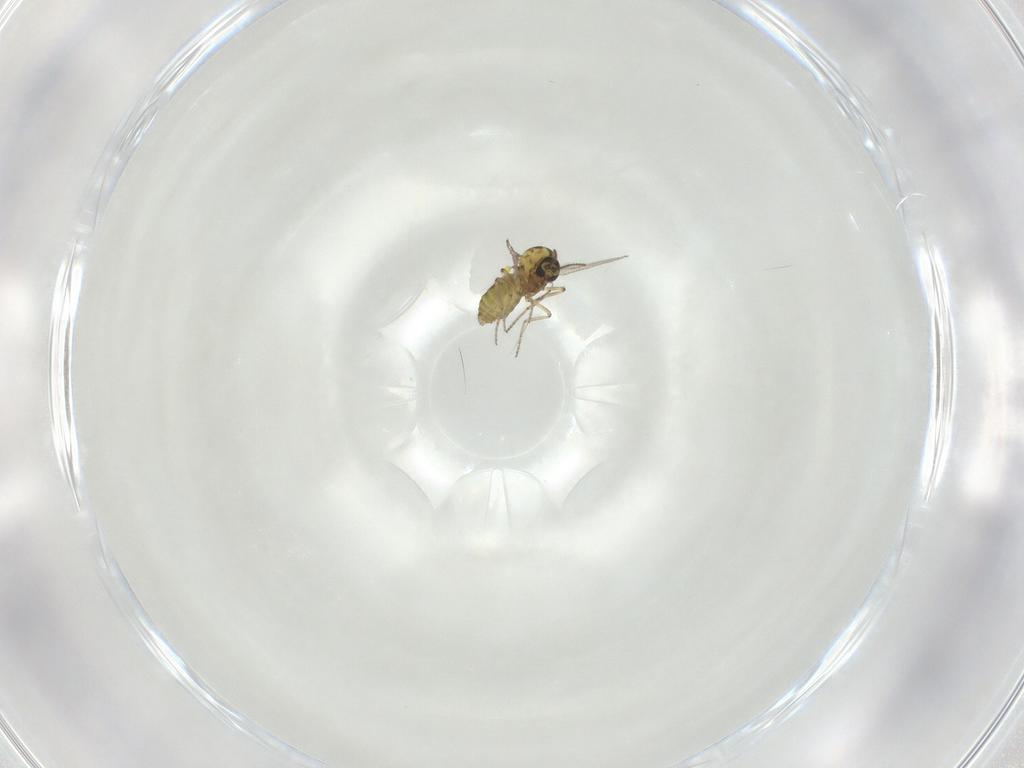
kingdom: Animalia
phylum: Arthropoda
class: Insecta
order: Diptera
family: Ceratopogonidae
